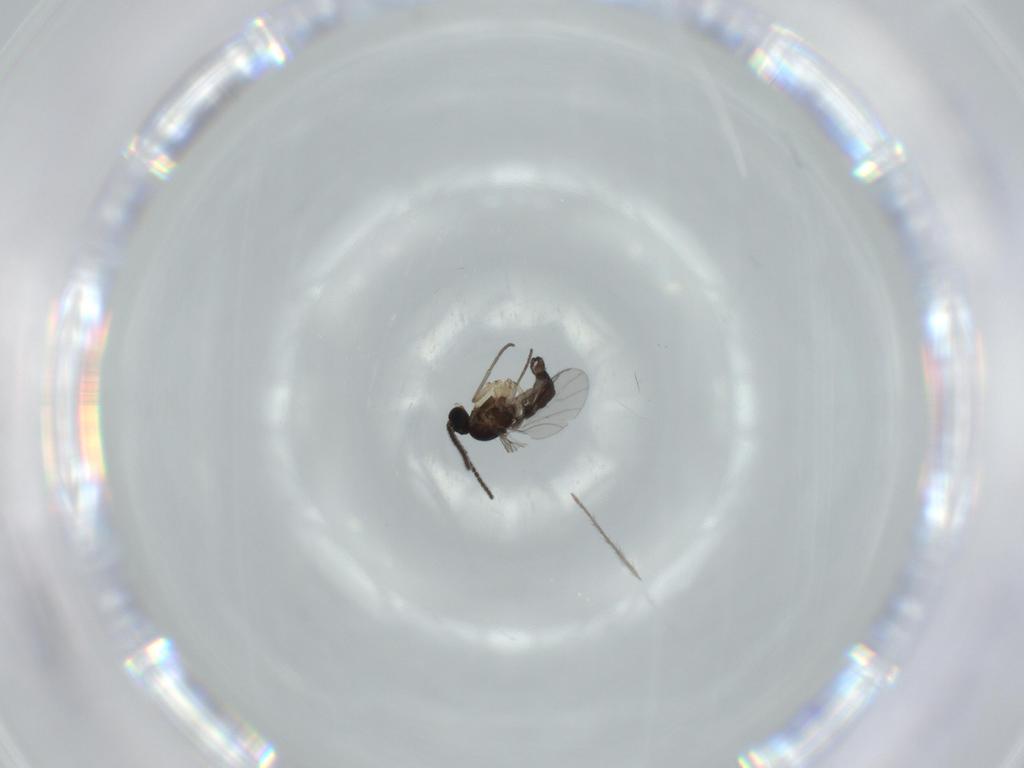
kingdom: Animalia
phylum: Arthropoda
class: Insecta
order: Diptera
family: Sciaridae
